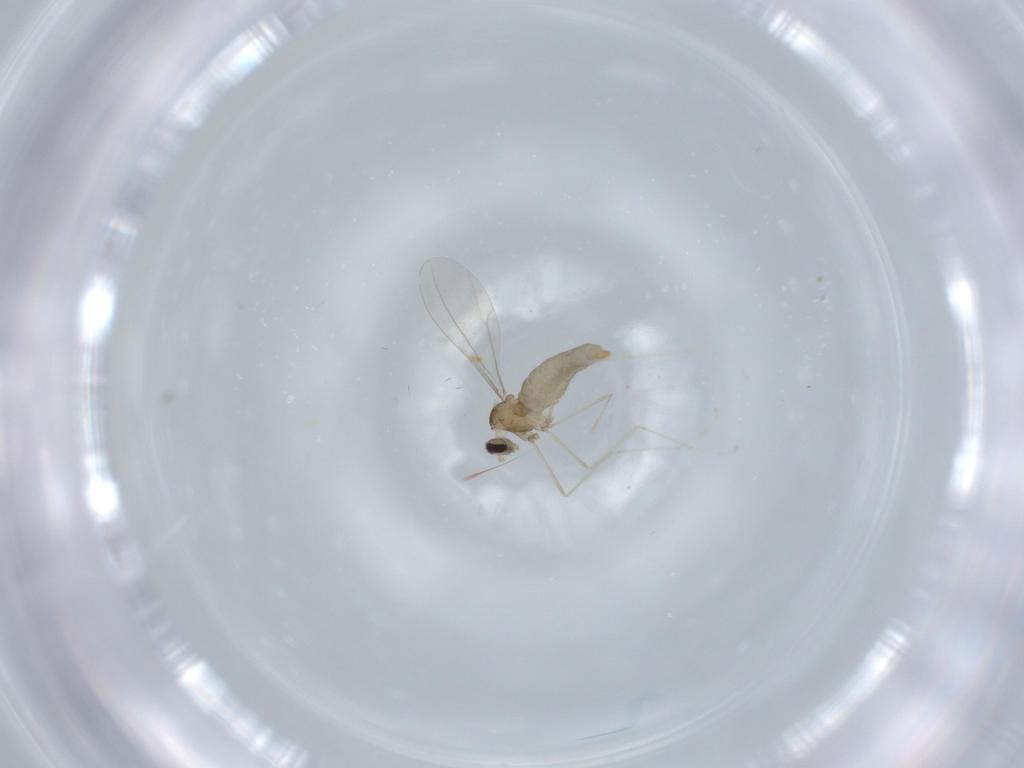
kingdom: Animalia
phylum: Arthropoda
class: Insecta
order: Diptera
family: Cecidomyiidae
